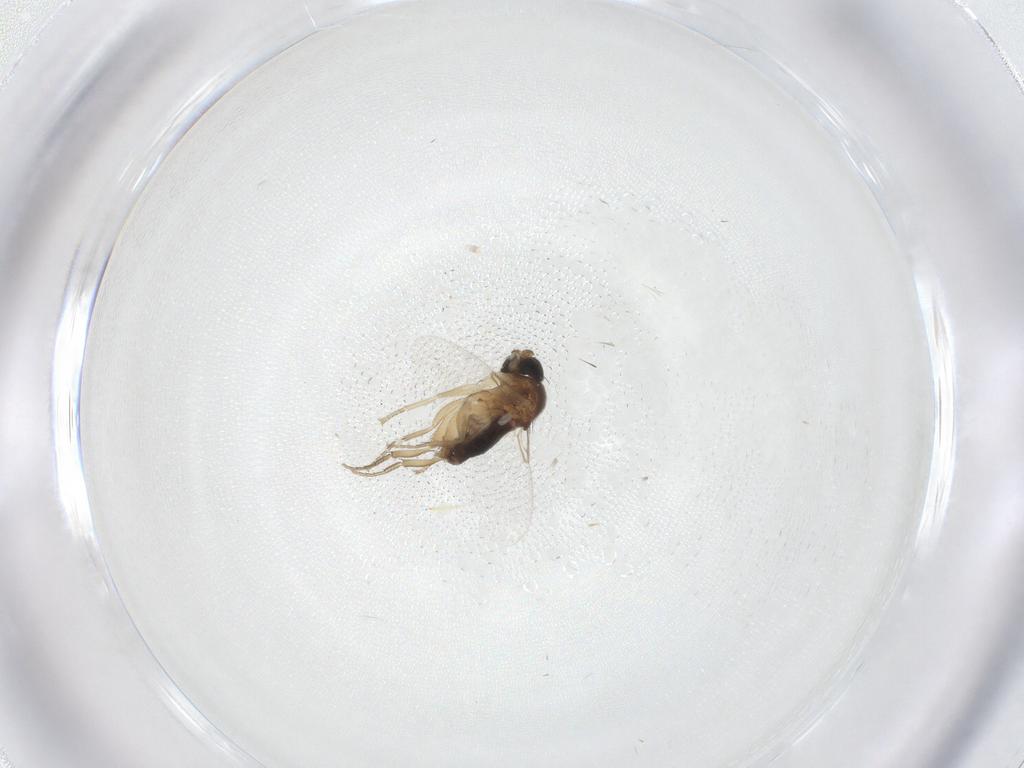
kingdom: Animalia
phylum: Arthropoda
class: Insecta
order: Diptera
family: Phoridae
